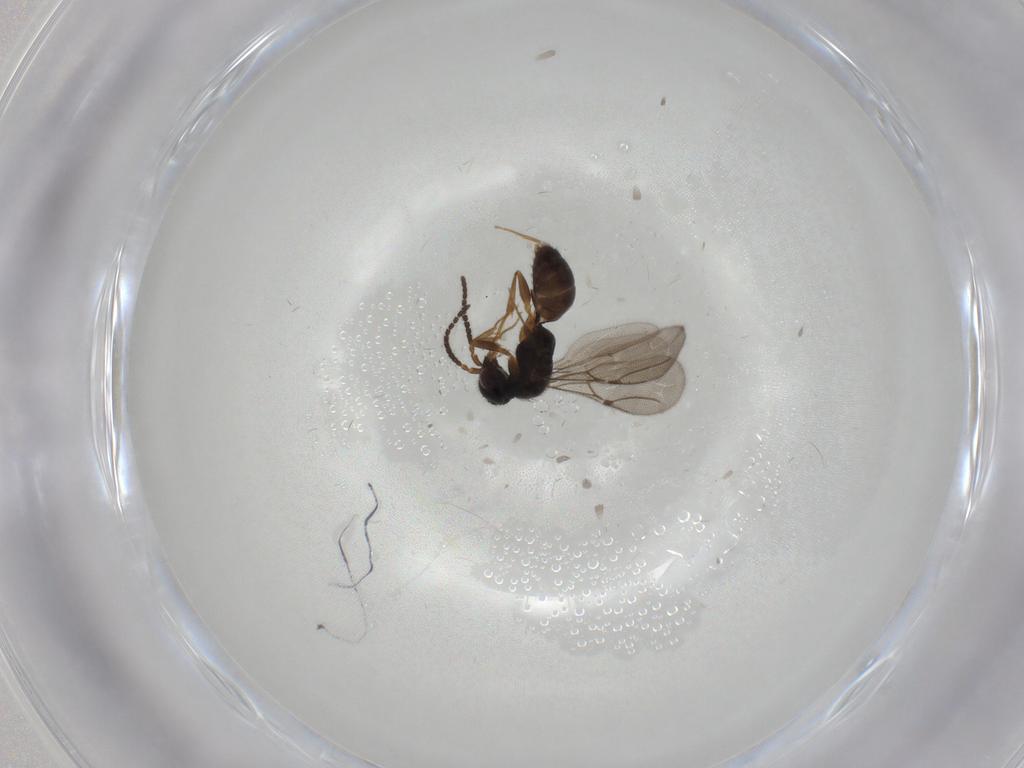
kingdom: Animalia
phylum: Arthropoda
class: Insecta
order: Hymenoptera
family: Bethylidae
